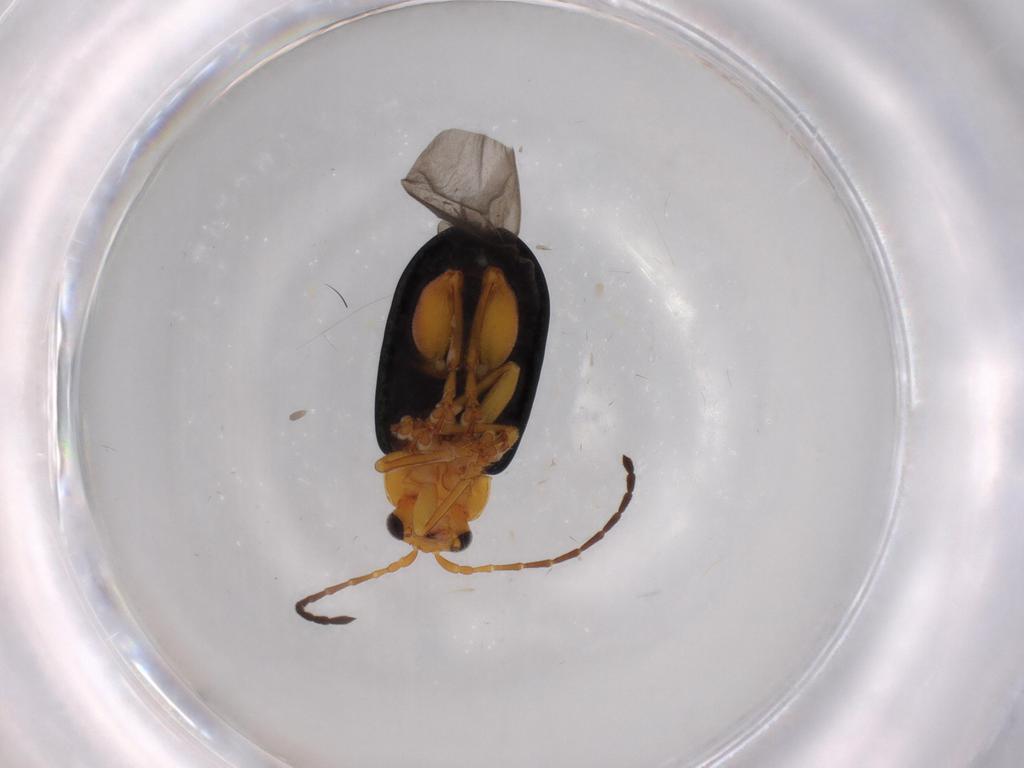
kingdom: Animalia
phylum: Arthropoda
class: Insecta
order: Coleoptera
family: Chrysomelidae
